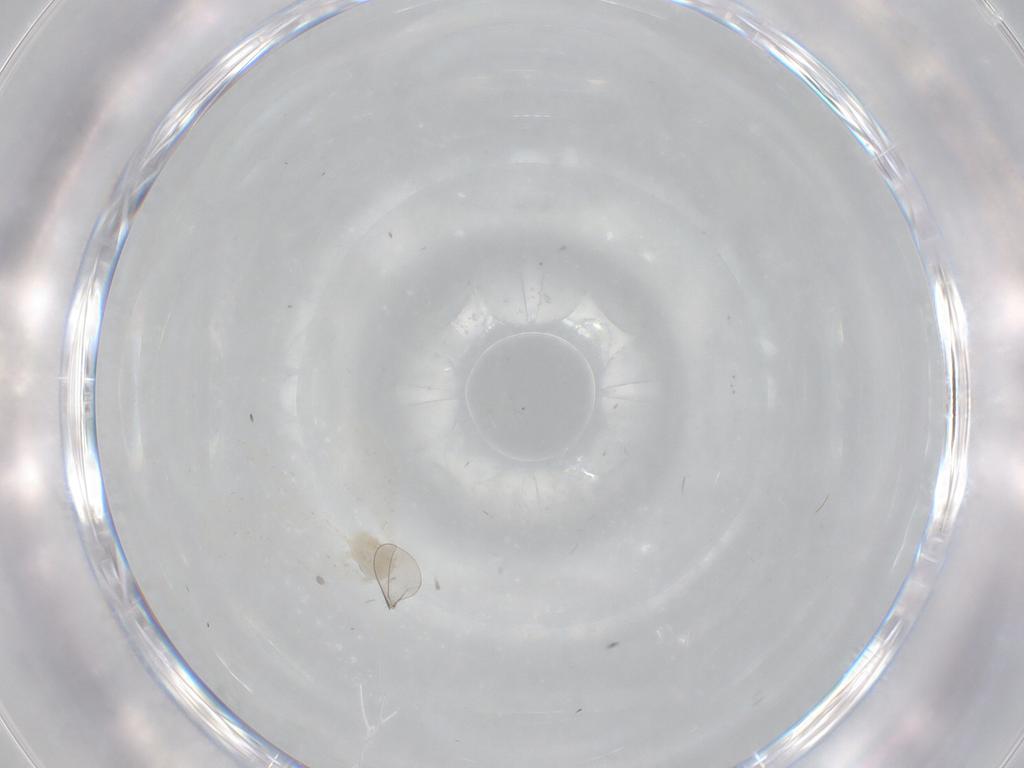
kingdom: Animalia
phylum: Arthropoda
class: Insecta
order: Diptera
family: Cecidomyiidae
